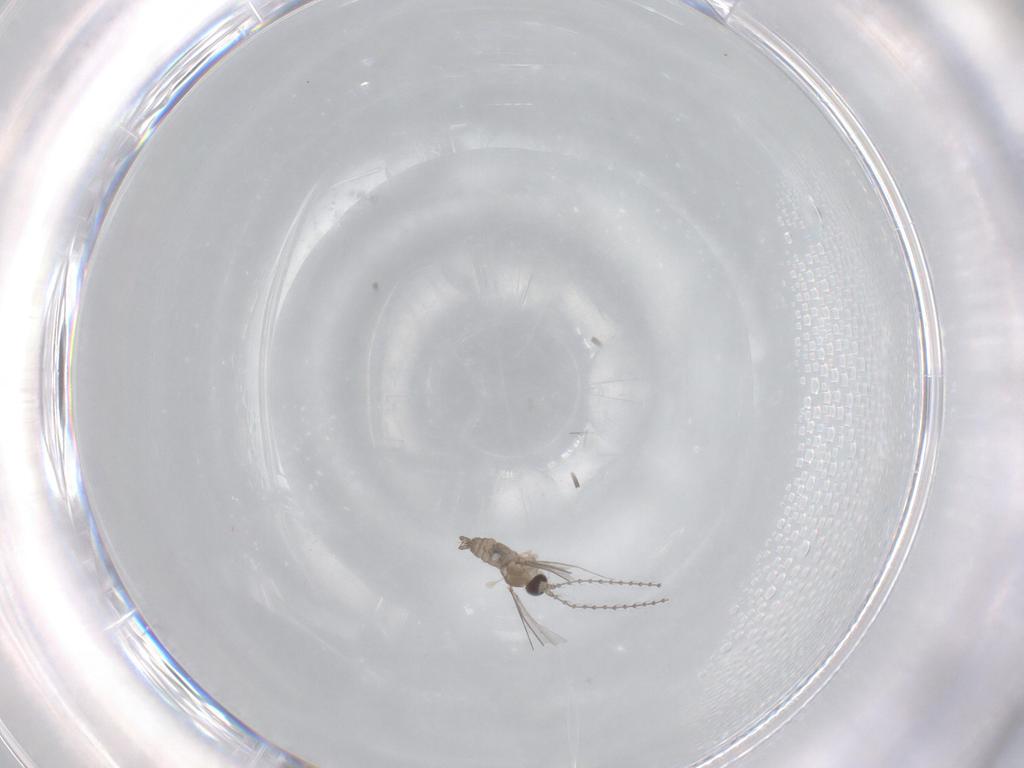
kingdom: Animalia
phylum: Arthropoda
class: Insecta
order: Diptera
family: Cecidomyiidae
